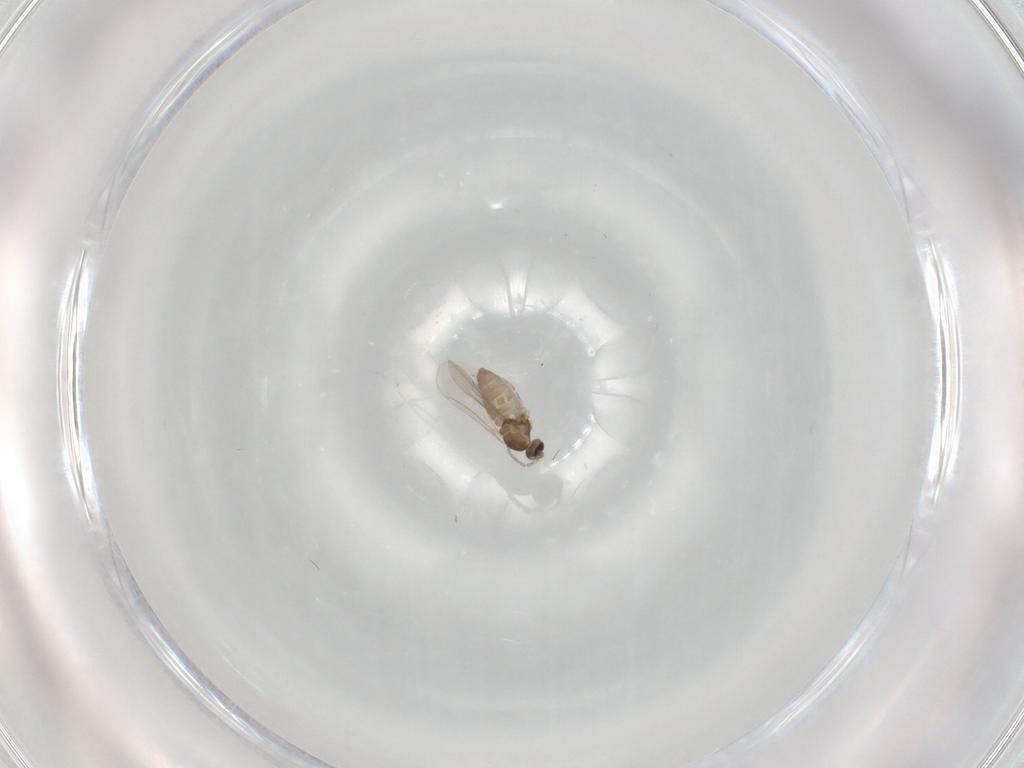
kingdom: Animalia
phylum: Arthropoda
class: Insecta
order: Diptera
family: Cecidomyiidae
